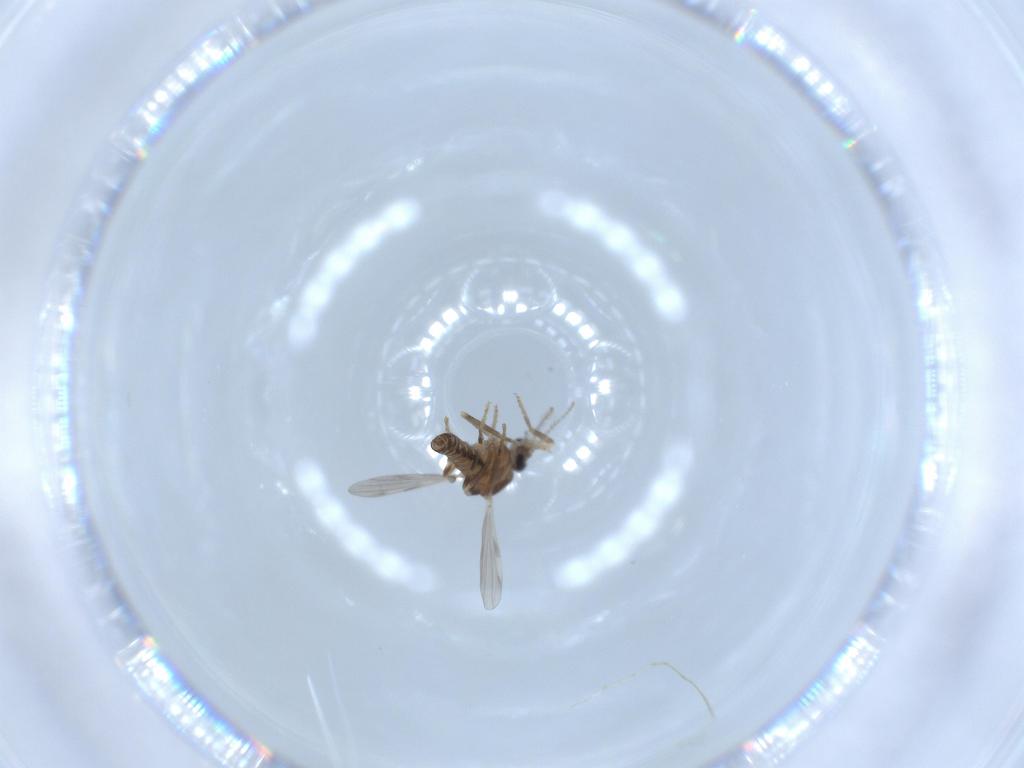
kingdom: Animalia
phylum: Arthropoda
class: Insecta
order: Diptera
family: Ceratopogonidae
